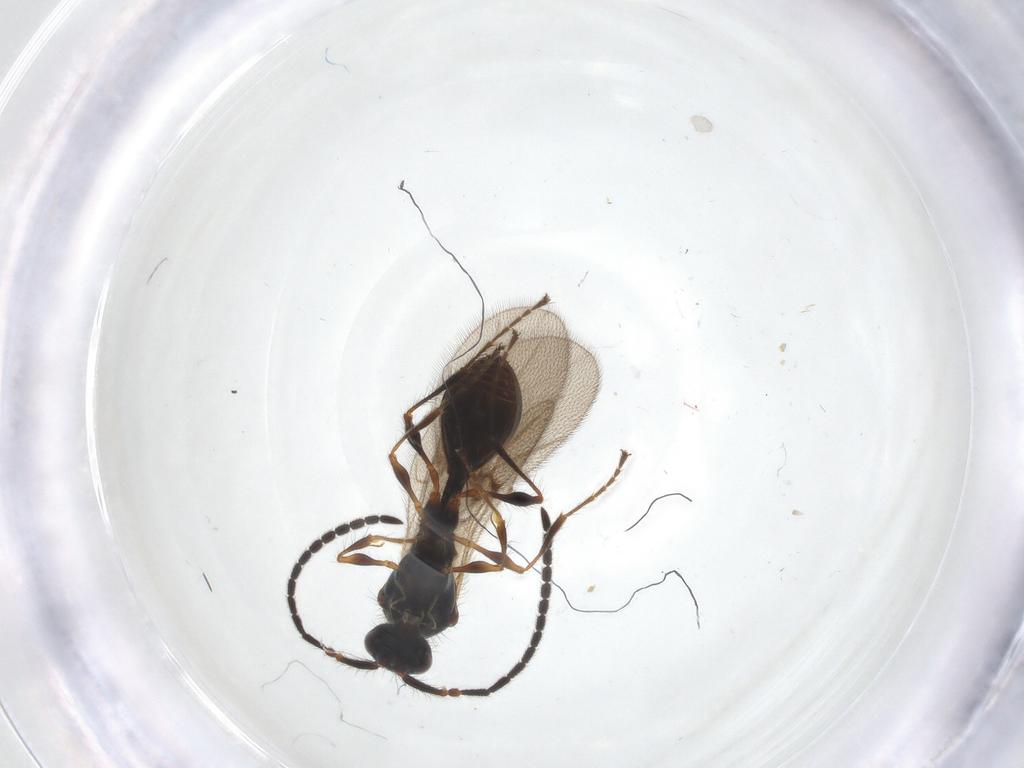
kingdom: Animalia
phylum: Arthropoda
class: Insecta
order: Hymenoptera
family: Diapriidae
